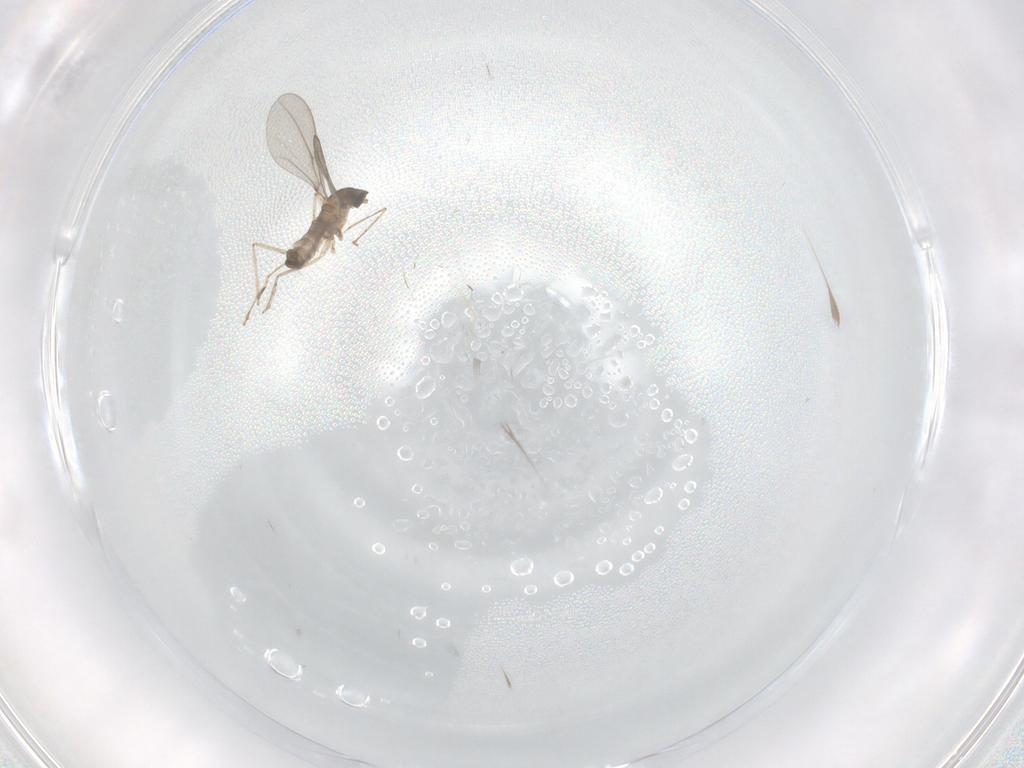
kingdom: Animalia
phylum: Arthropoda
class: Insecta
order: Diptera
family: Cecidomyiidae
